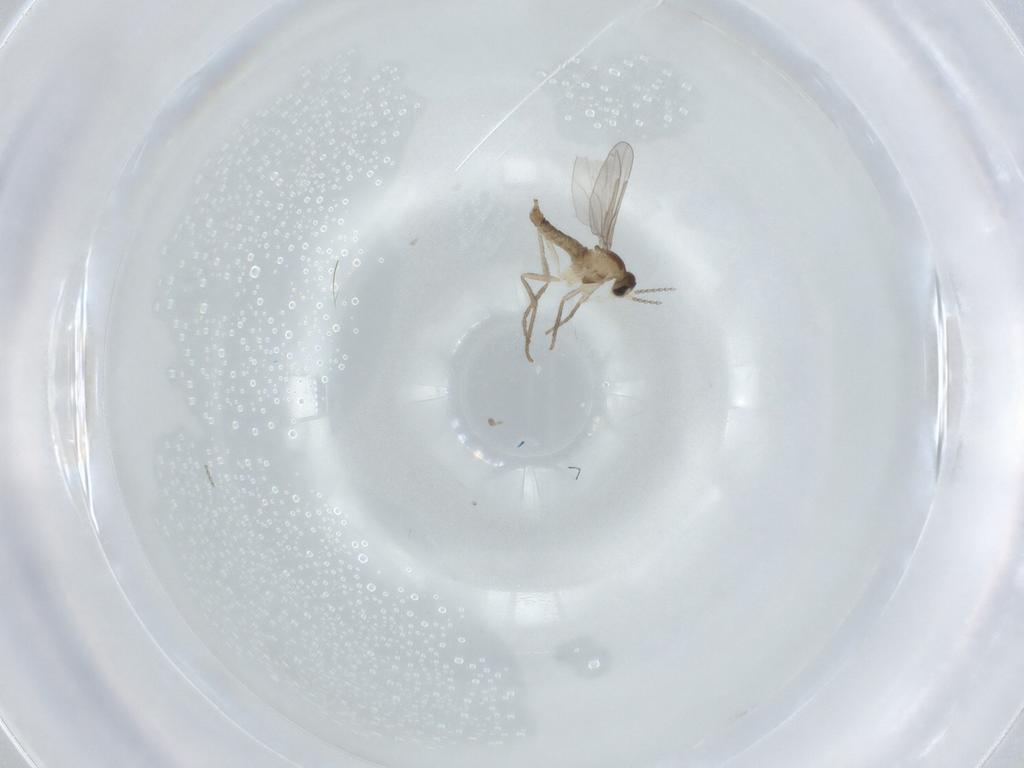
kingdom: Animalia
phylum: Arthropoda
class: Insecta
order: Diptera
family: Cecidomyiidae
